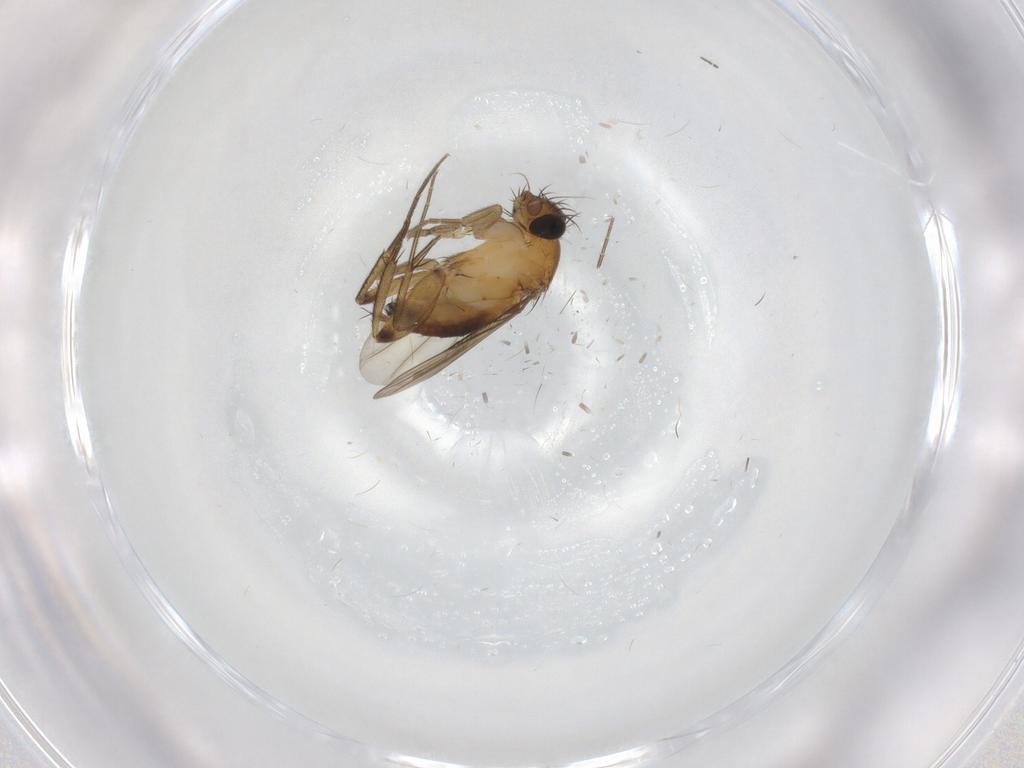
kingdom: Animalia
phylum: Arthropoda
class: Insecta
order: Diptera
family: Phoridae
